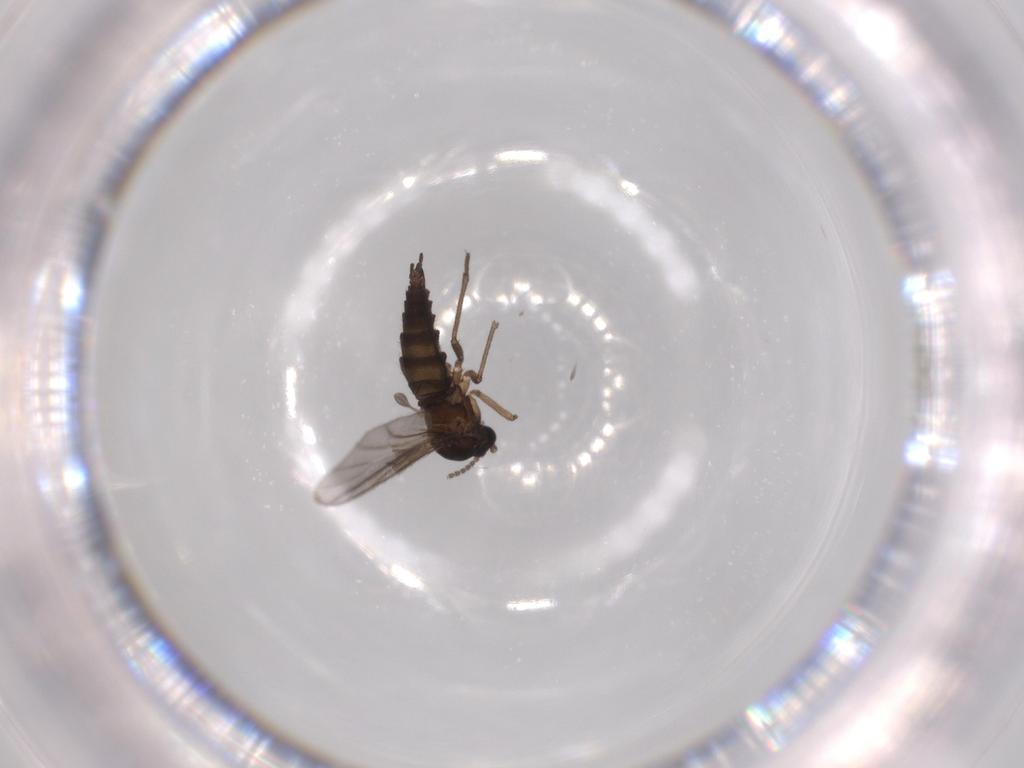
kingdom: Animalia
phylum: Arthropoda
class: Insecta
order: Diptera
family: Sciaridae
